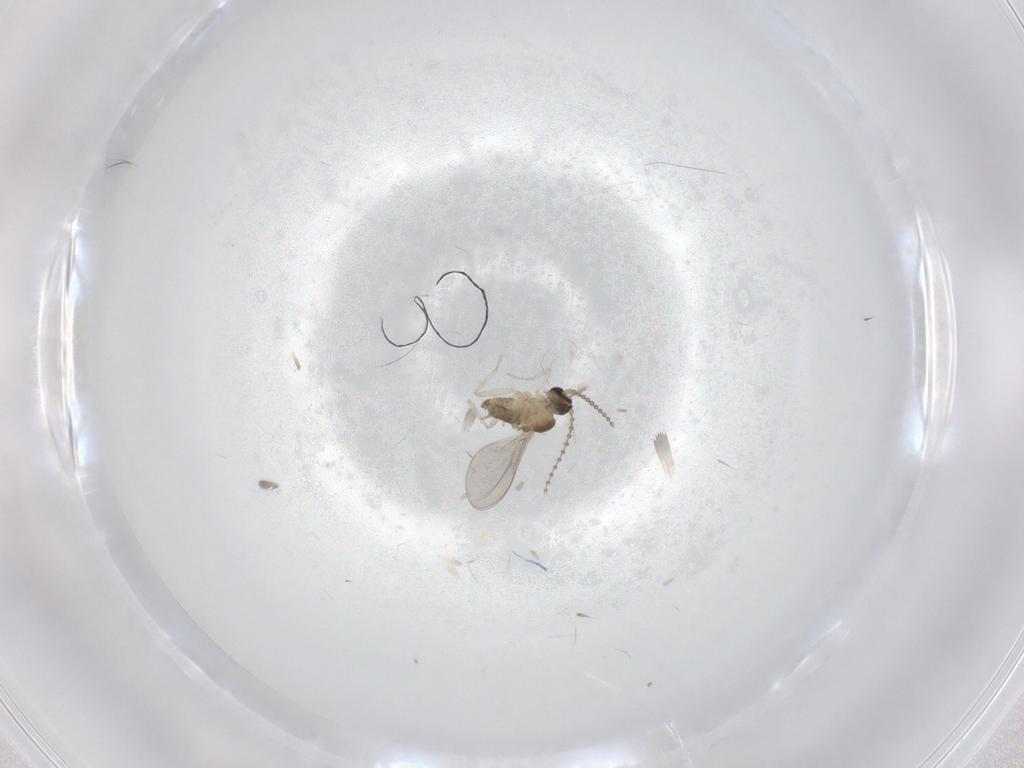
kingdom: Animalia
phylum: Arthropoda
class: Insecta
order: Diptera
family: Cecidomyiidae
